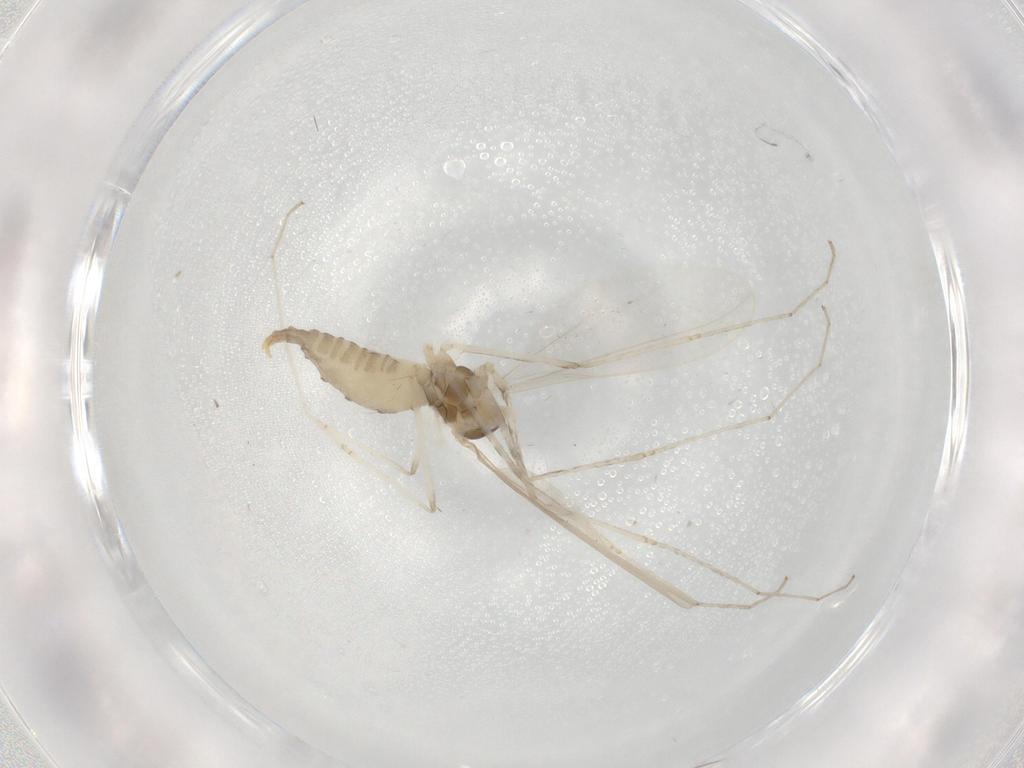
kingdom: Animalia
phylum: Arthropoda
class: Insecta
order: Diptera
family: Cecidomyiidae
